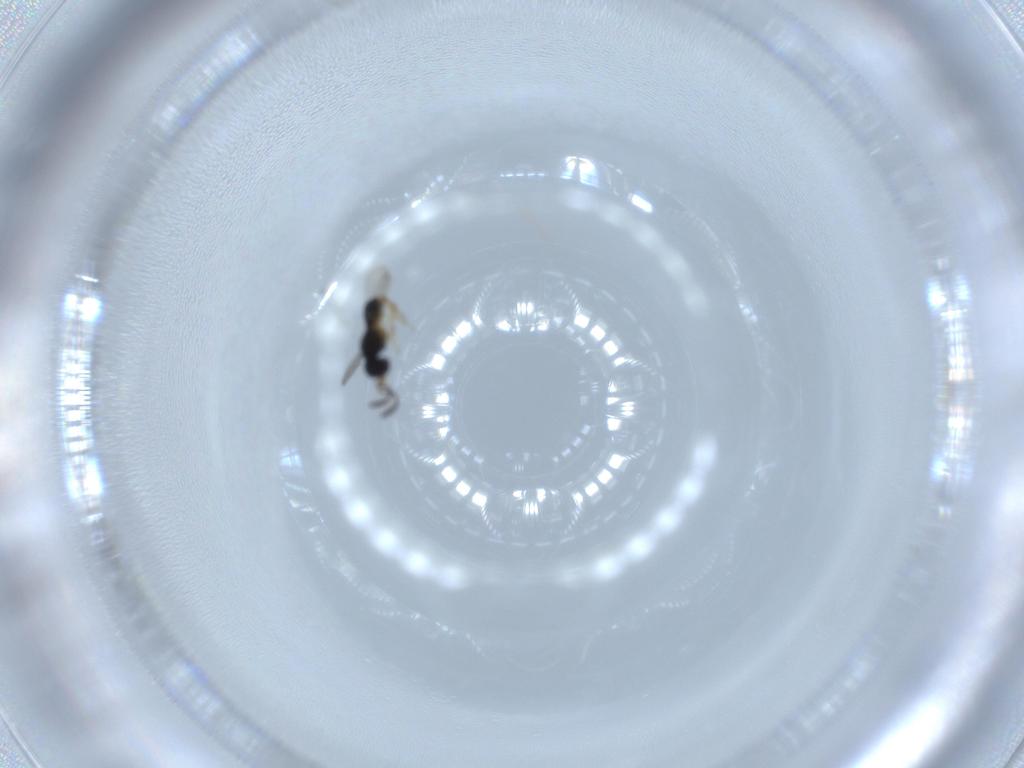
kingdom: Animalia
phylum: Arthropoda
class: Insecta
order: Hymenoptera
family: Scelionidae
